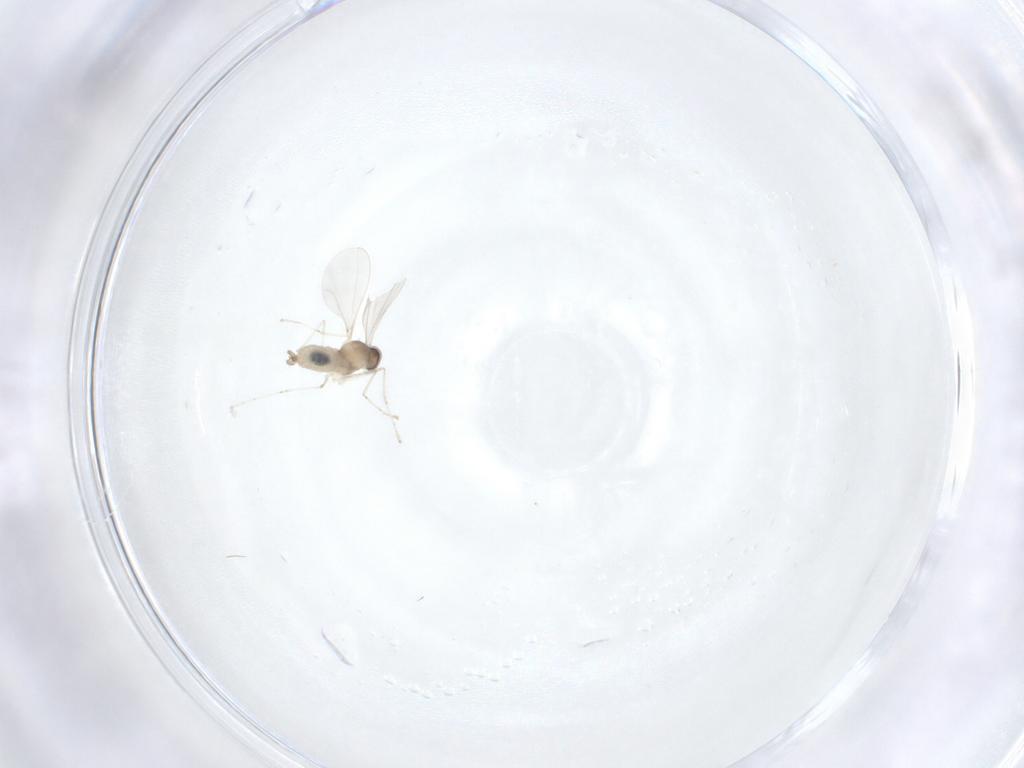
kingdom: Animalia
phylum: Arthropoda
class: Insecta
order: Diptera
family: Cecidomyiidae
